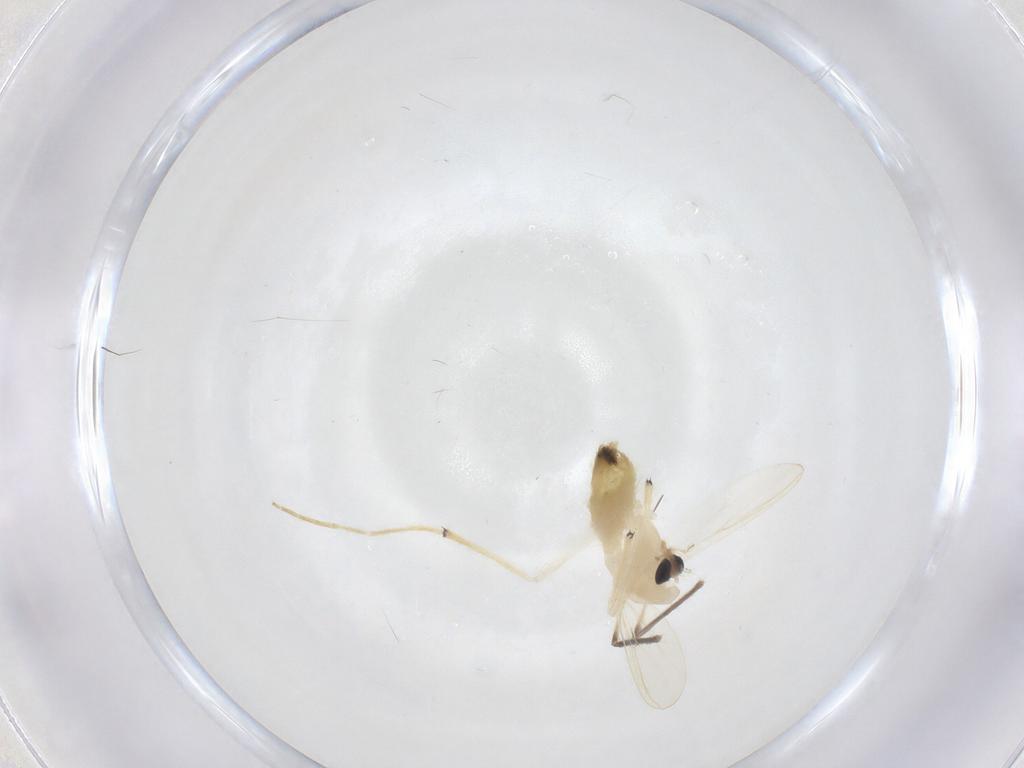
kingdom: Animalia
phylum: Arthropoda
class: Insecta
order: Diptera
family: Chironomidae
